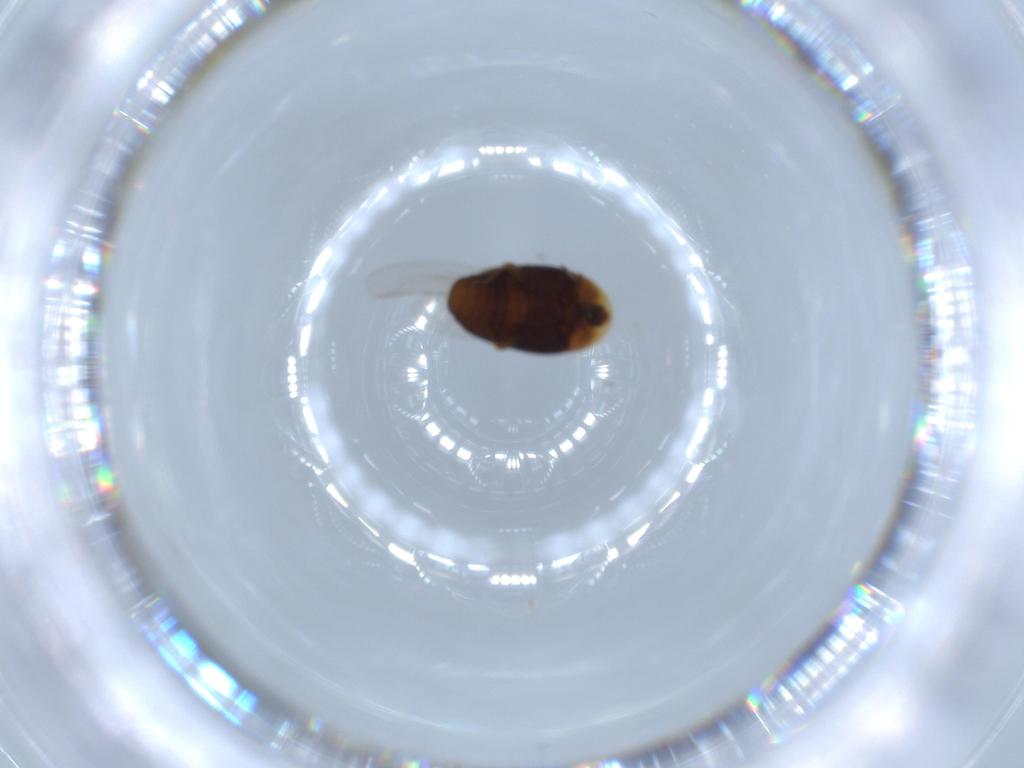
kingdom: Animalia
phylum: Arthropoda
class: Insecta
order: Coleoptera
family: Corylophidae
